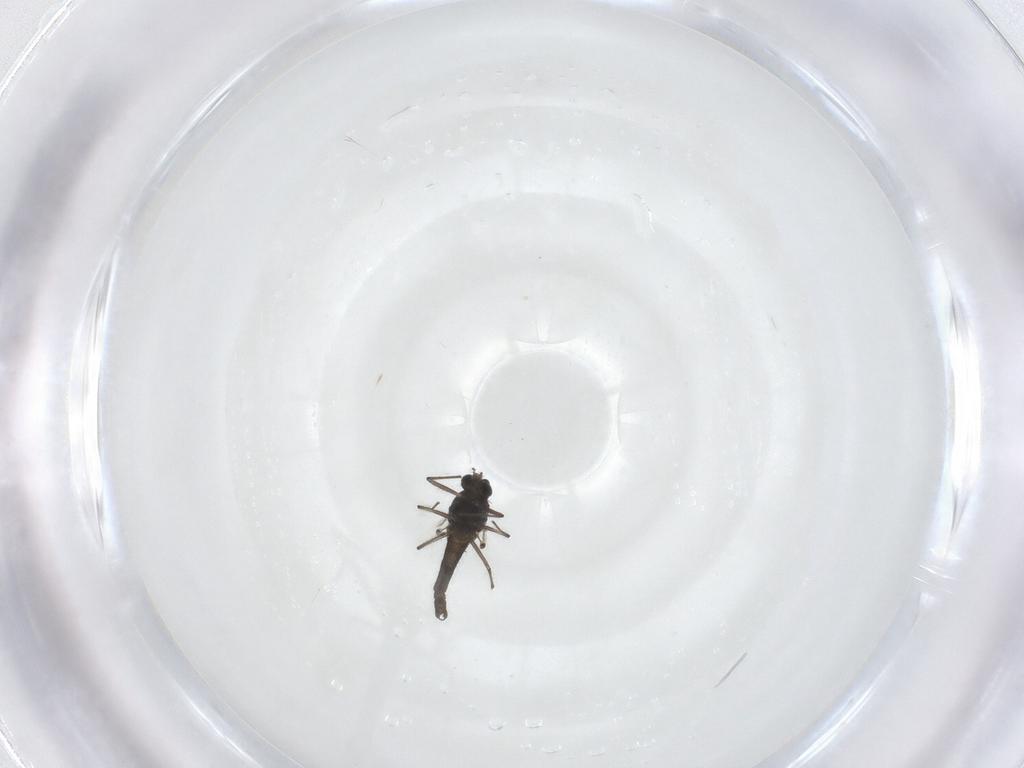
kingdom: Animalia
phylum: Arthropoda
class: Insecta
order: Diptera
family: Chironomidae
